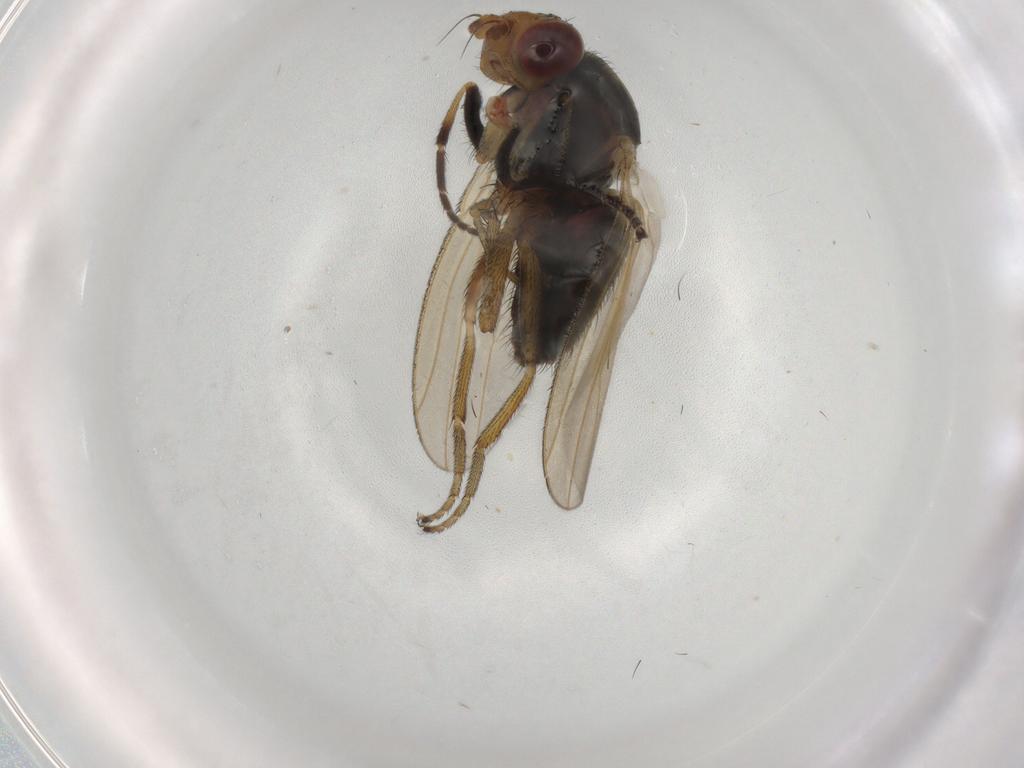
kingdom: Animalia
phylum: Arthropoda
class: Insecta
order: Diptera
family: Ulidiidae
